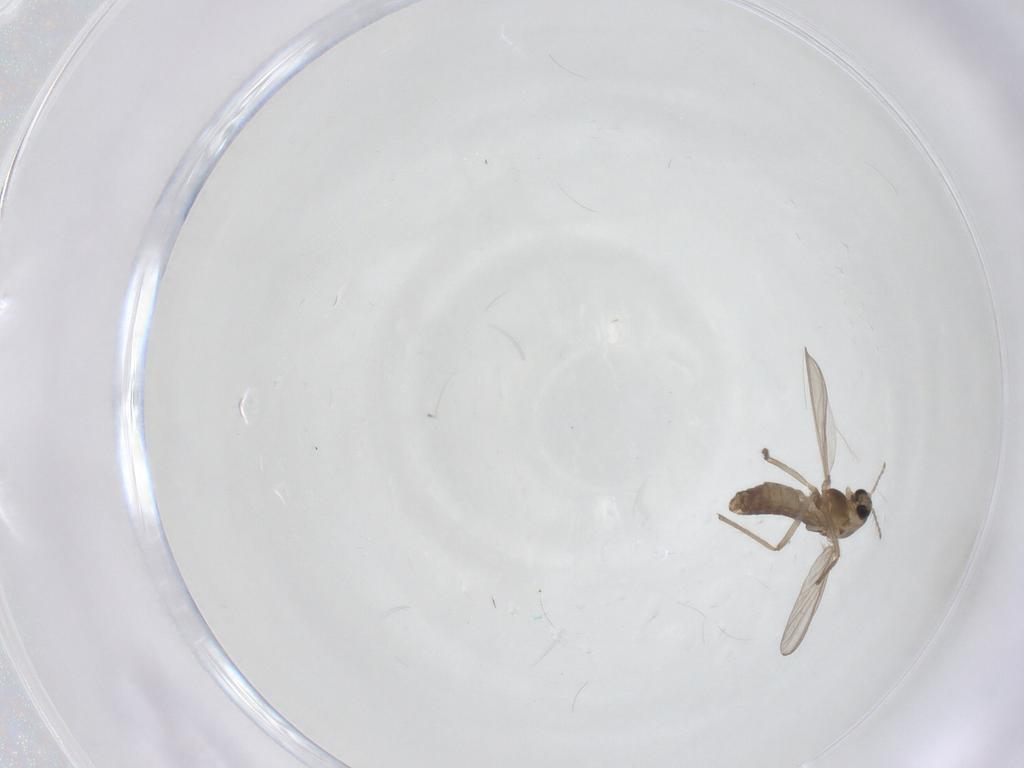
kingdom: Animalia
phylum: Arthropoda
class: Insecta
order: Diptera
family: Chironomidae
